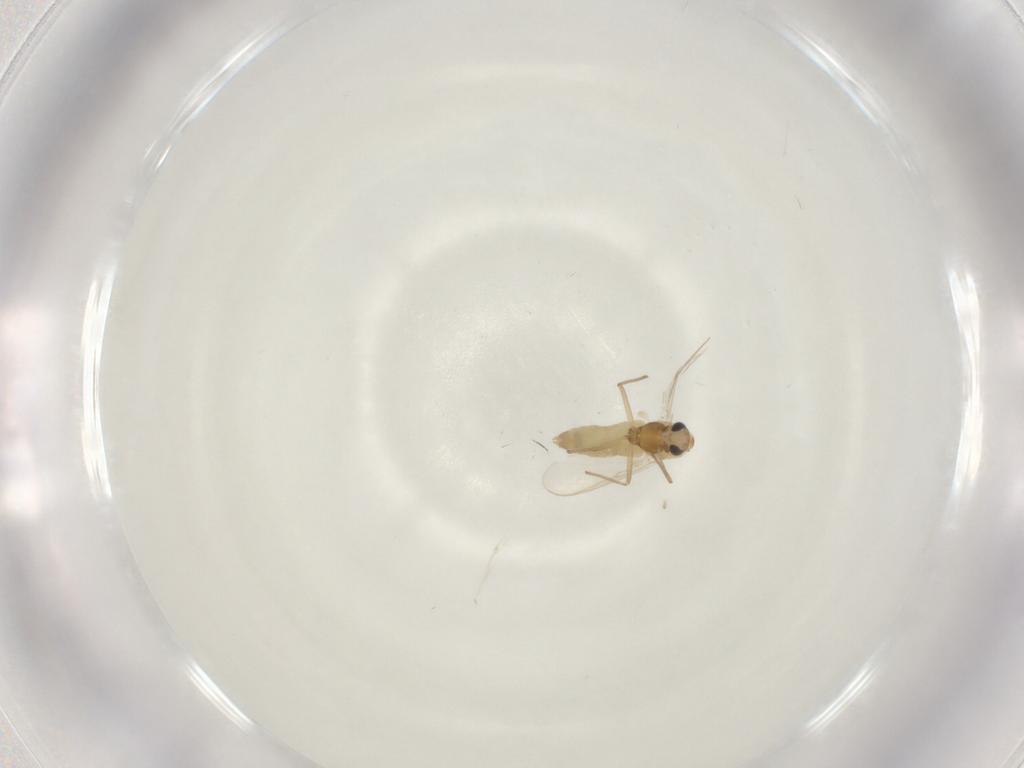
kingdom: Animalia
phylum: Arthropoda
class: Insecta
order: Diptera
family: Chironomidae
